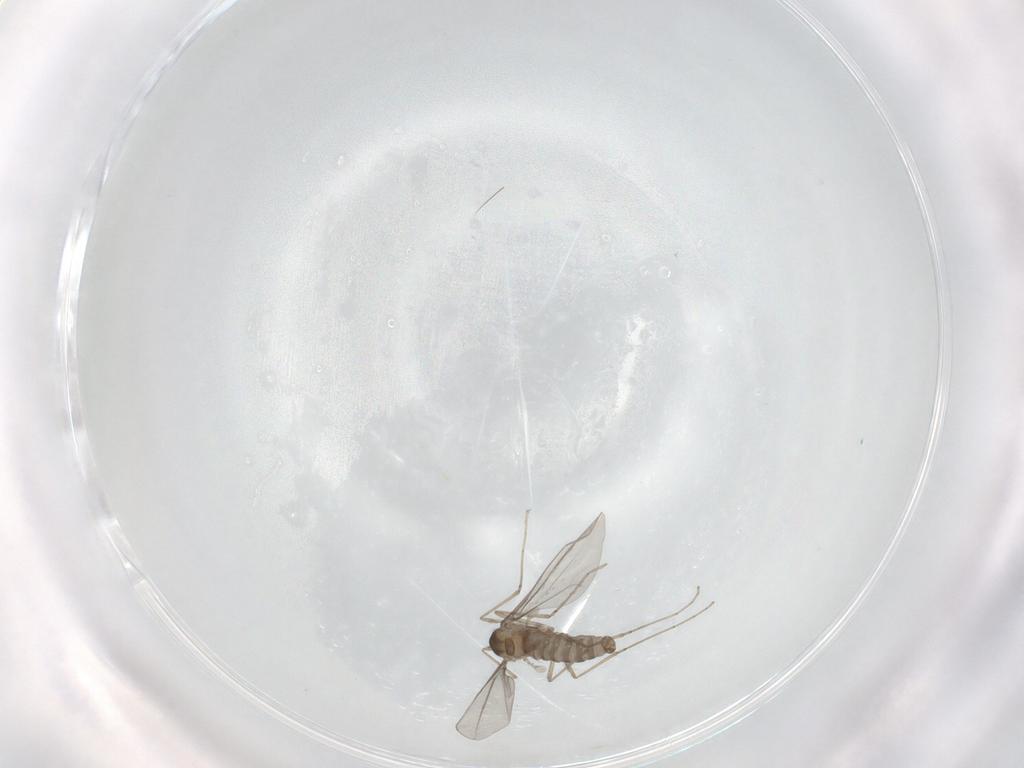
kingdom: Animalia
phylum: Arthropoda
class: Insecta
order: Diptera
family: Cecidomyiidae
